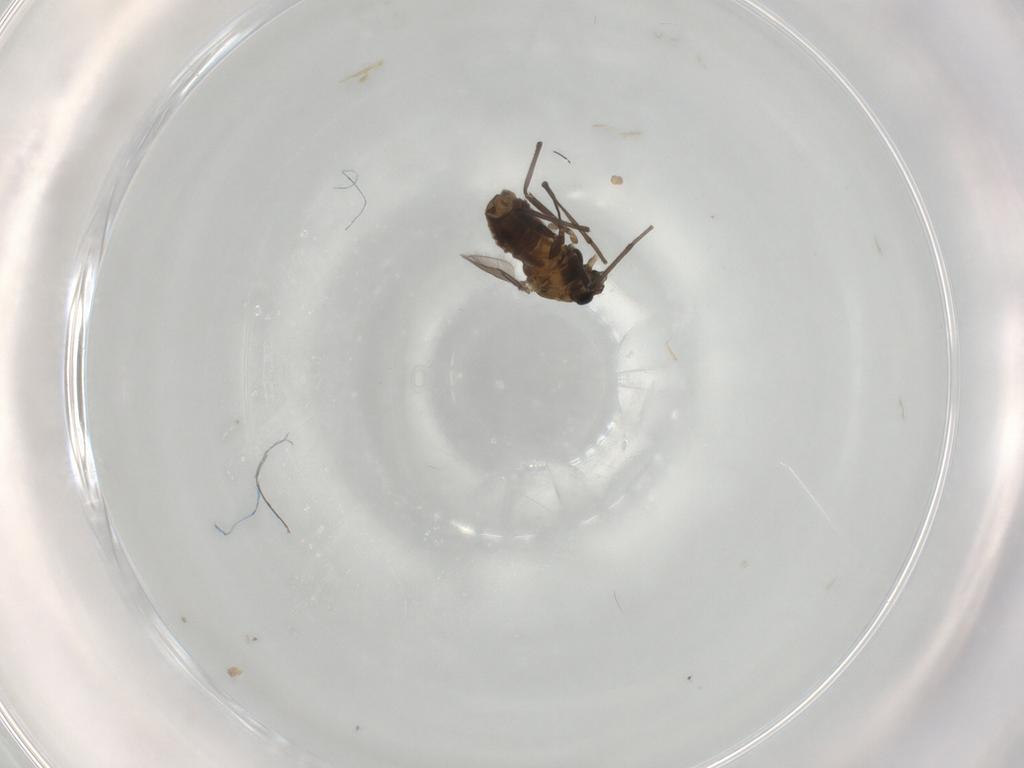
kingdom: Animalia
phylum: Arthropoda
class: Insecta
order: Diptera
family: Chironomidae
